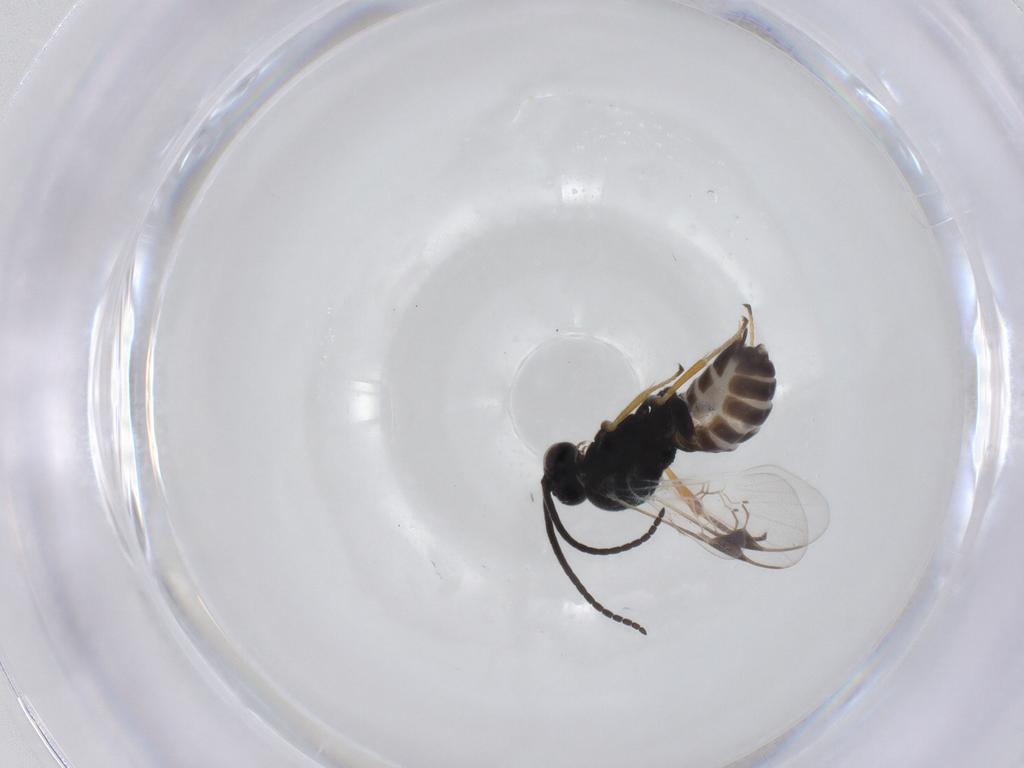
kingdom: Animalia
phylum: Arthropoda
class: Insecta
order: Hymenoptera
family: Braconidae
